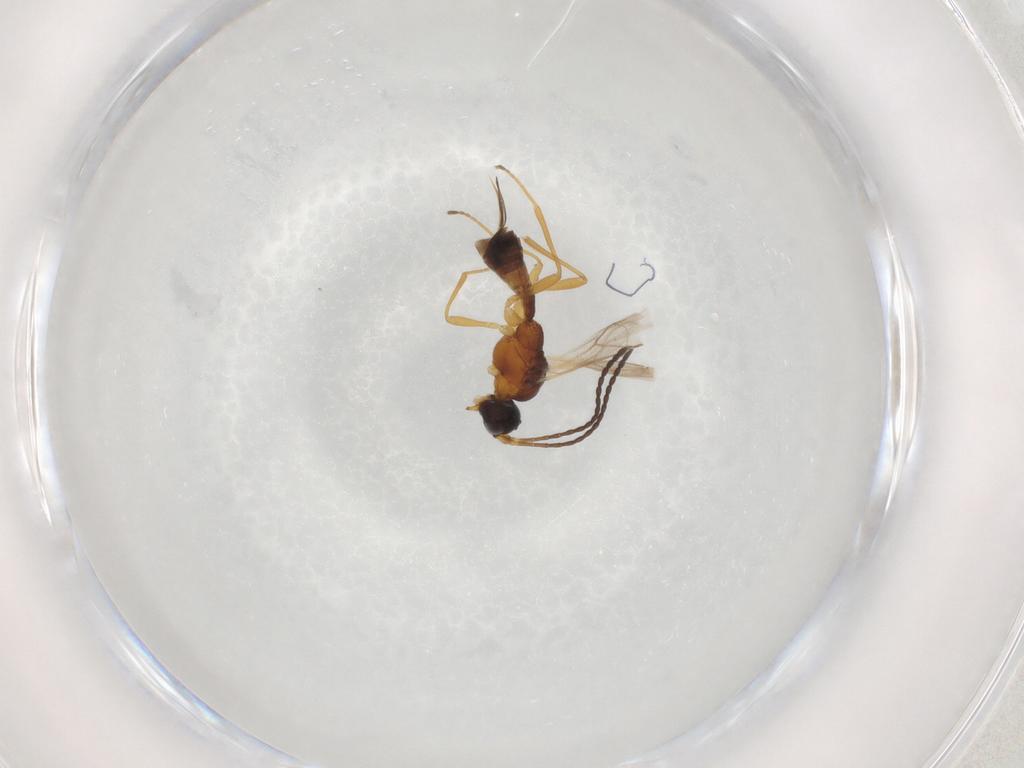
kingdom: Animalia
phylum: Arthropoda
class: Insecta
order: Hymenoptera
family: Braconidae
